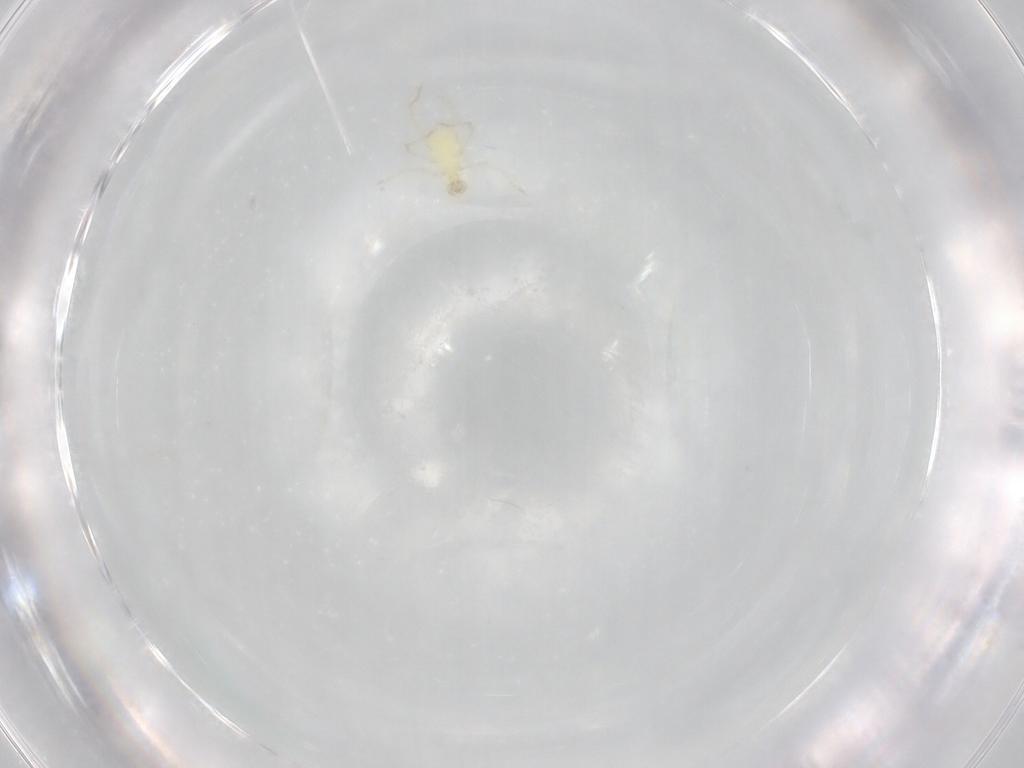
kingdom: Animalia
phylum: Arthropoda
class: Arachnida
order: Trombidiformes
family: Erythraeidae
